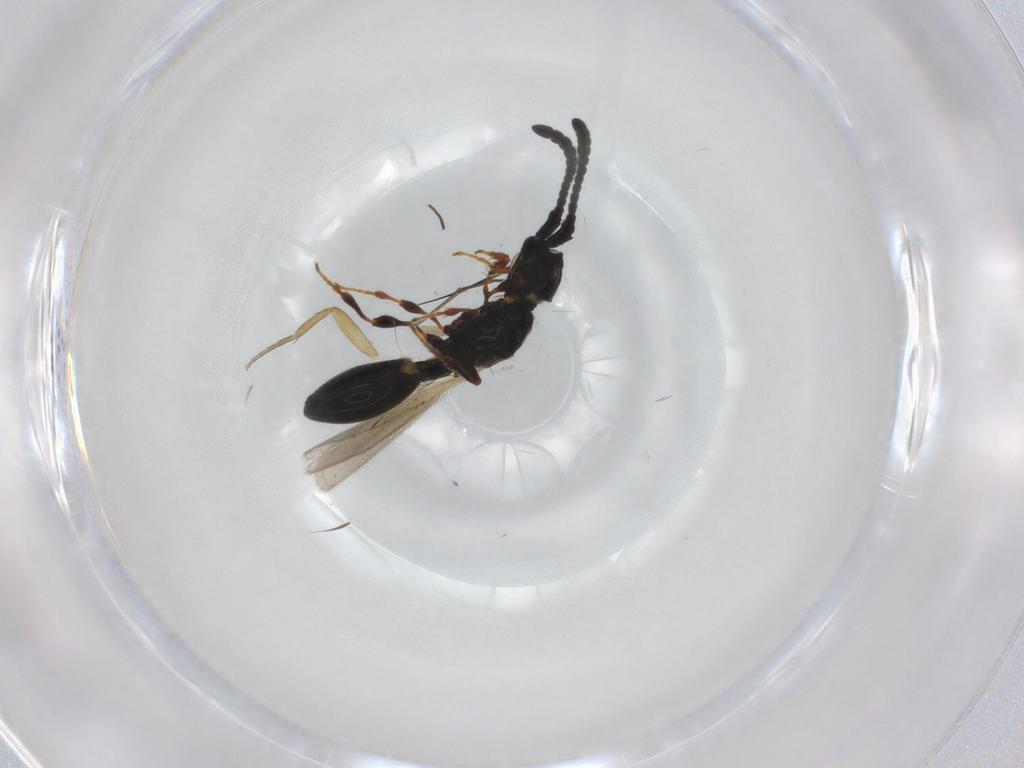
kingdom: Animalia
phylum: Arthropoda
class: Insecta
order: Hymenoptera
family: Diapriidae
